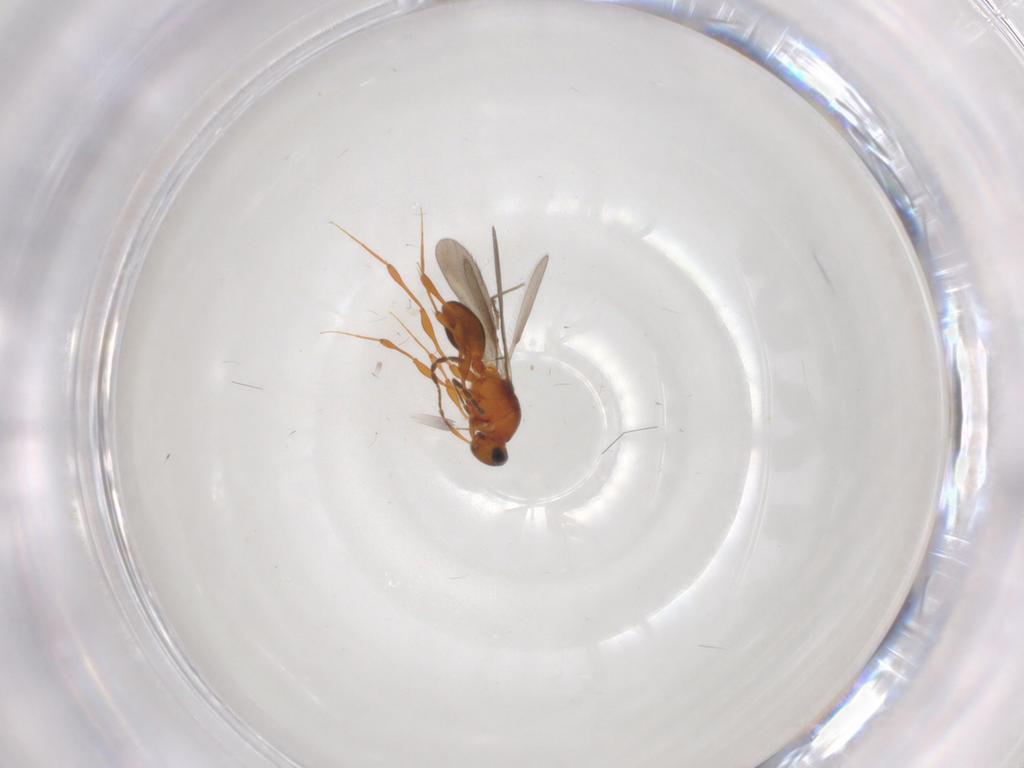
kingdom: Animalia
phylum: Arthropoda
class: Insecta
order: Hymenoptera
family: Platygastridae
